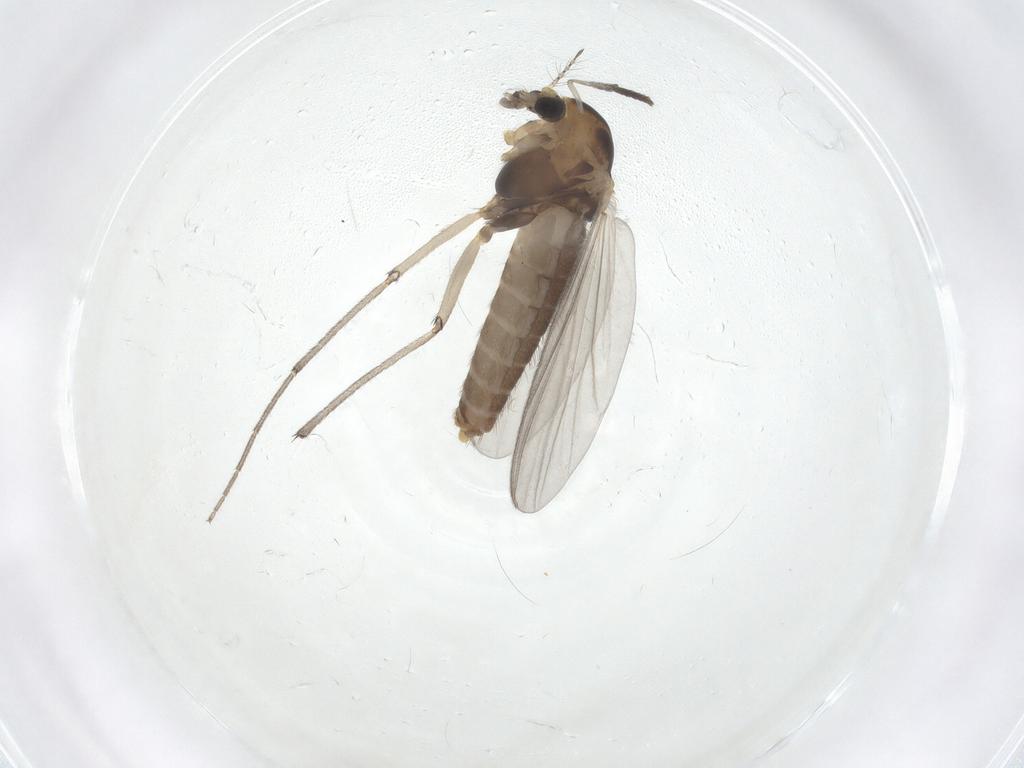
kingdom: Animalia
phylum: Arthropoda
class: Insecta
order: Diptera
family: Chironomidae
